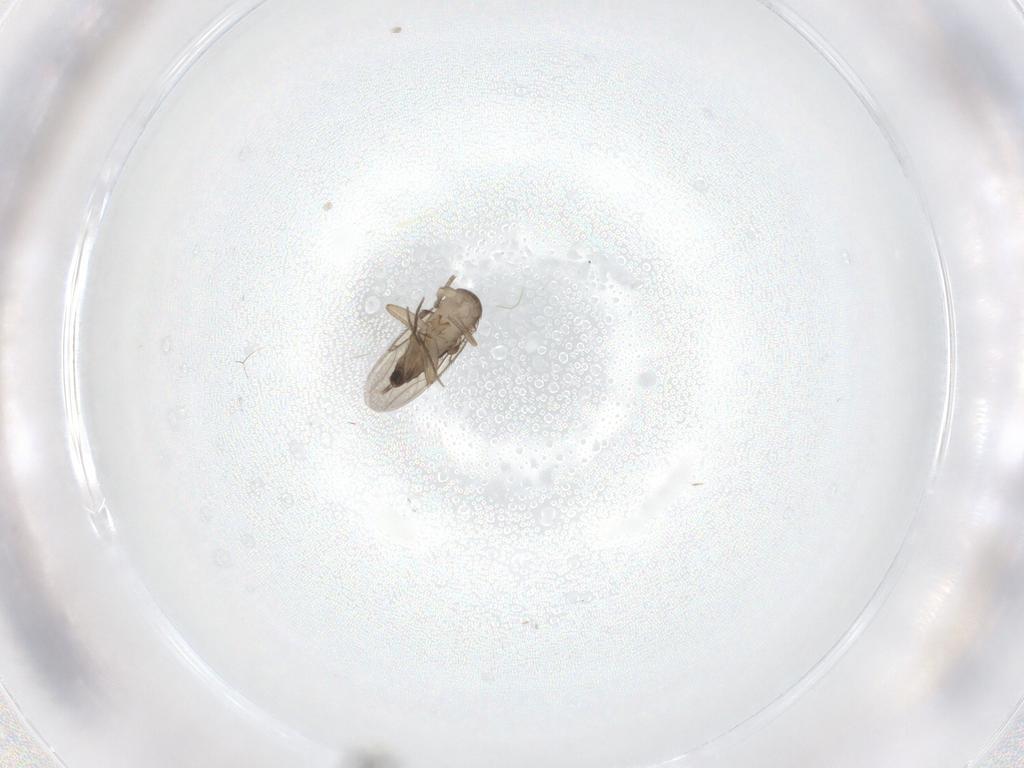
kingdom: Animalia
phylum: Arthropoda
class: Insecta
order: Diptera
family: Phoridae
